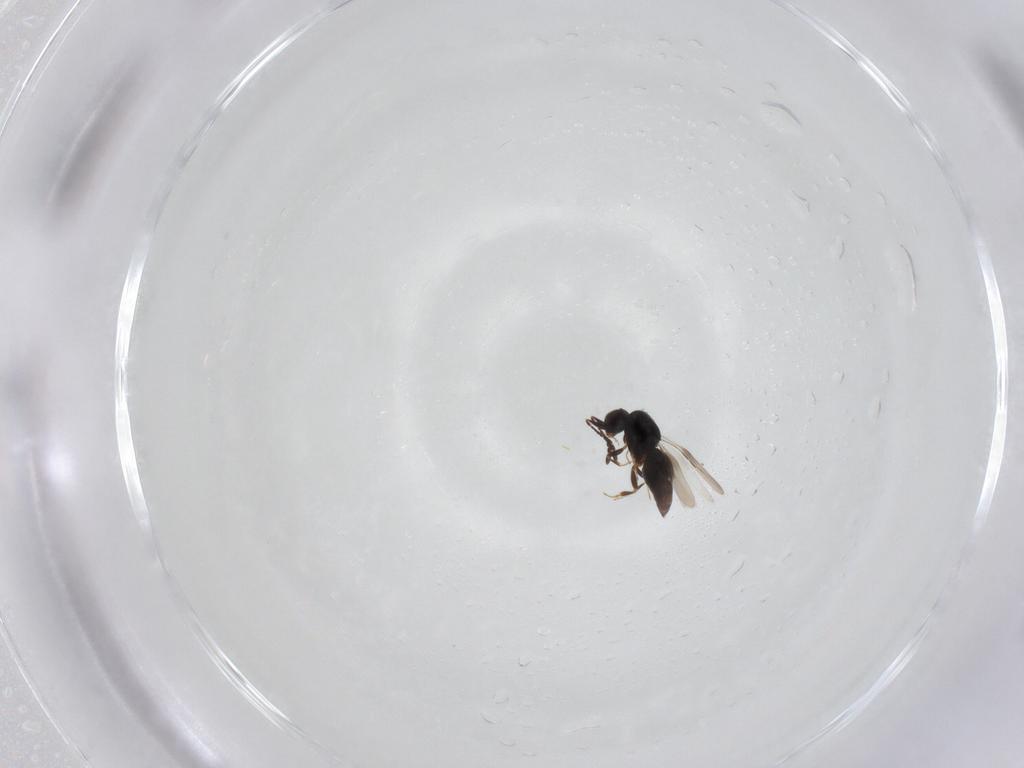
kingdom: Animalia
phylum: Arthropoda
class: Insecta
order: Hymenoptera
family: Ceraphronidae
